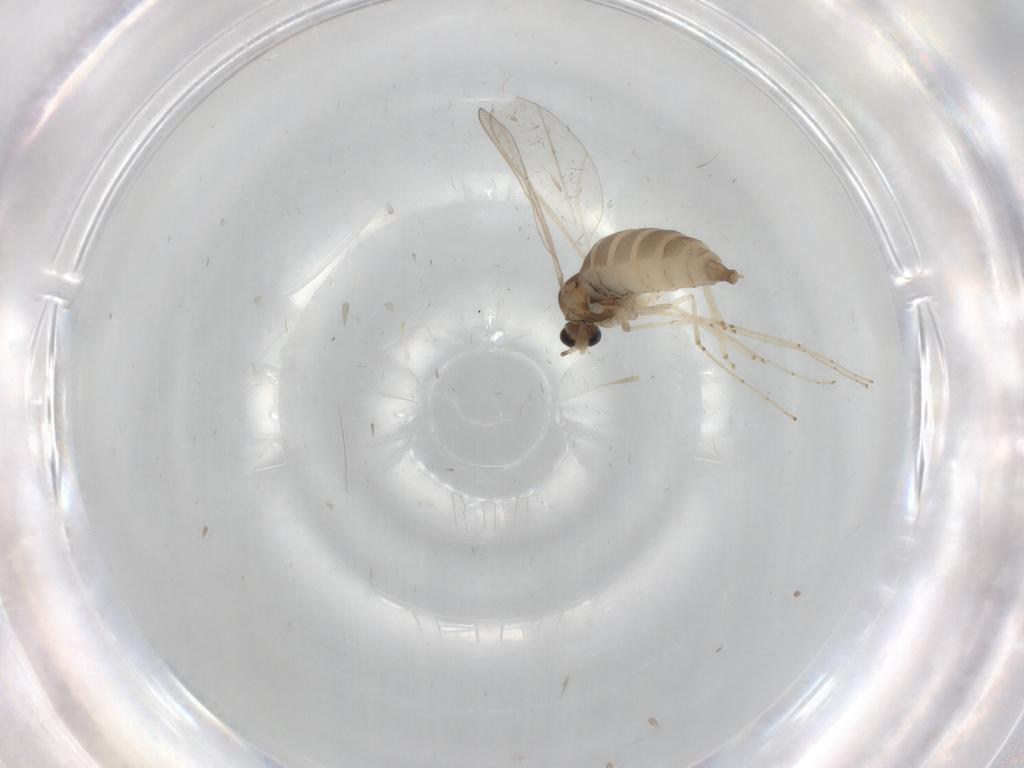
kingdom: Animalia
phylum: Arthropoda
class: Insecta
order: Diptera
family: Cecidomyiidae
